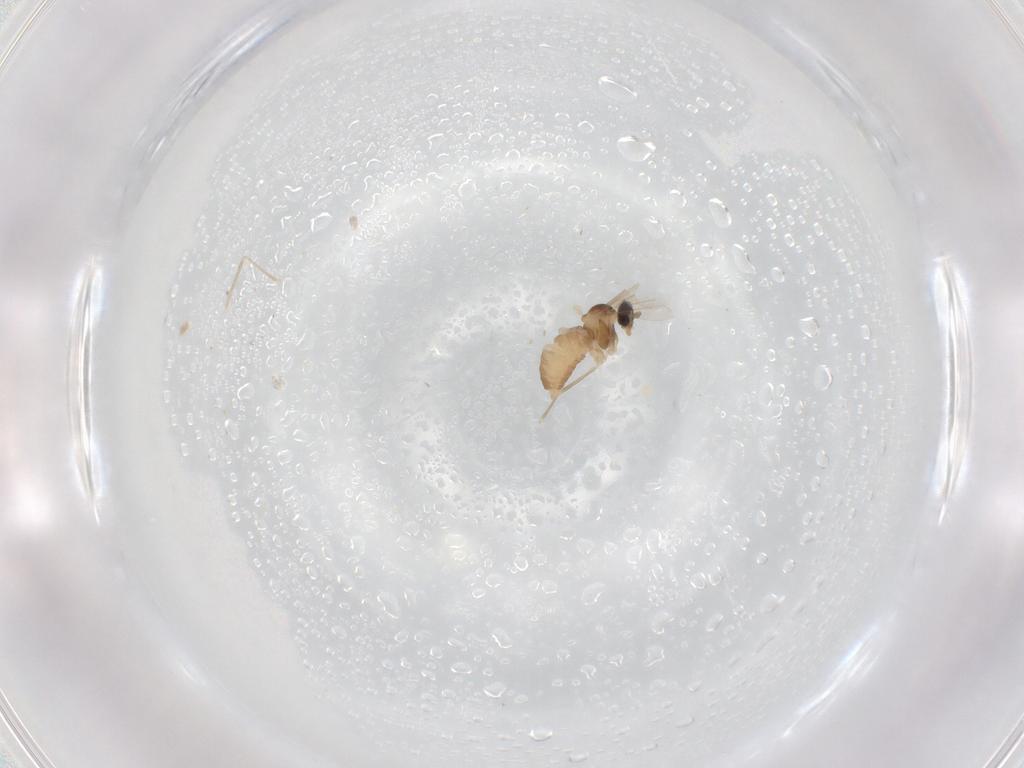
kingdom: Animalia
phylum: Arthropoda
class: Insecta
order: Diptera
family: Cecidomyiidae
